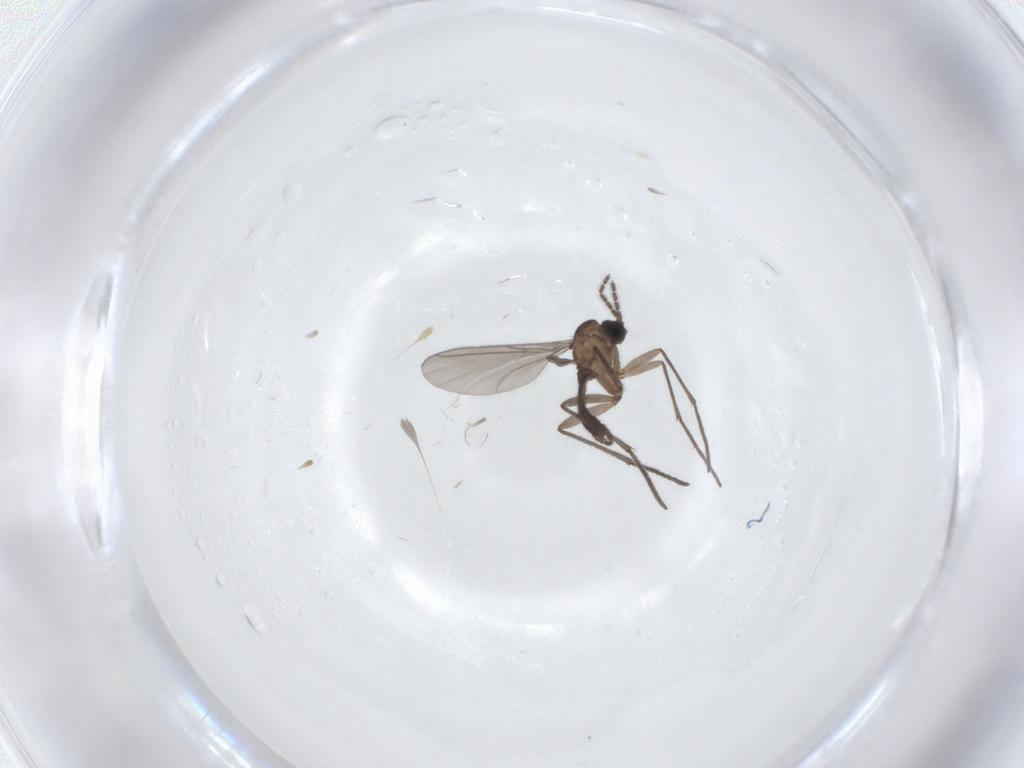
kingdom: Animalia
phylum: Arthropoda
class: Insecta
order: Diptera
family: Sciaridae
